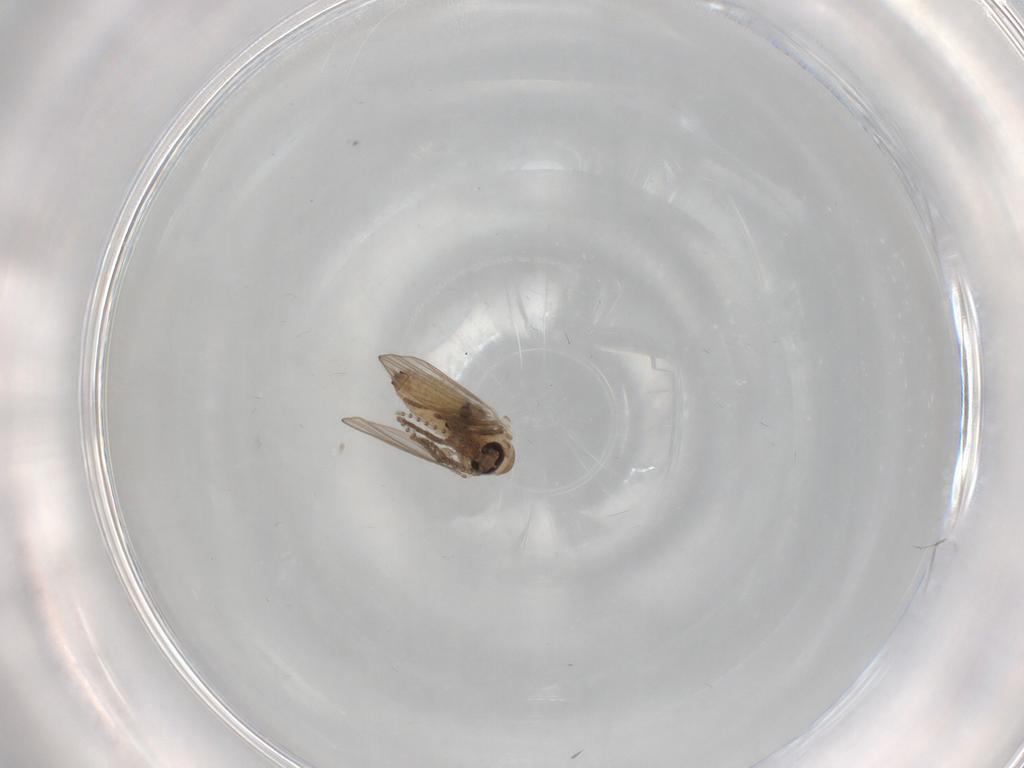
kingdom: Animalia
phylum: Arthropoda
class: Insecta
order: Diptera
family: Psychodidae
